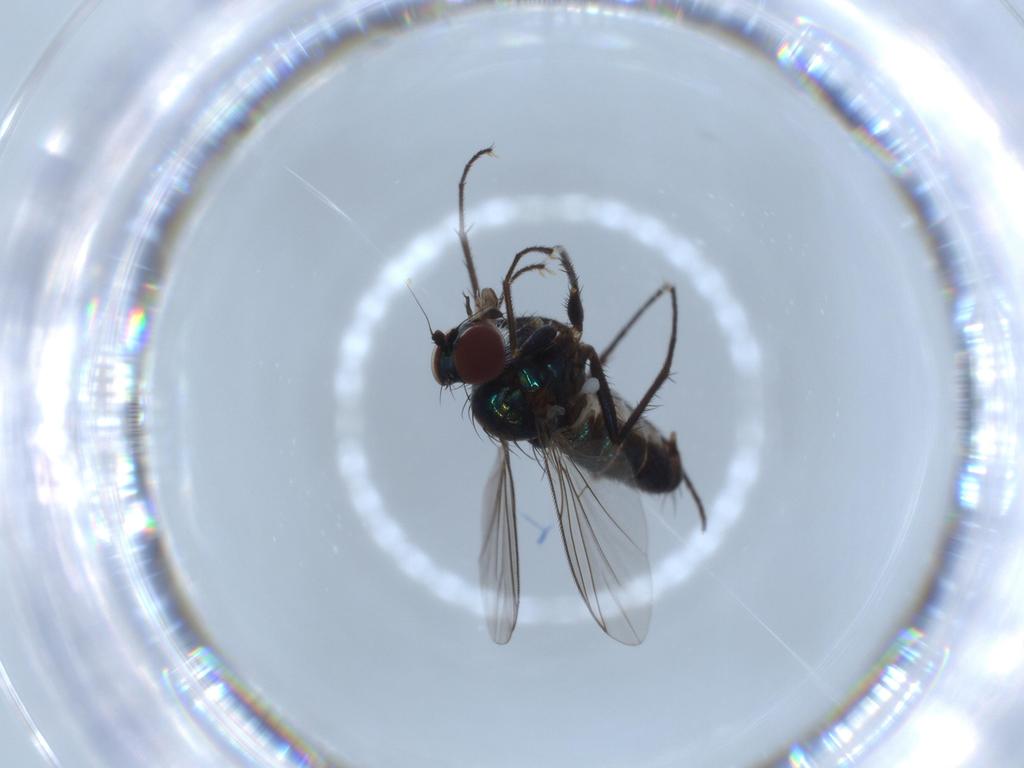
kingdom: Animalia
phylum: Arthropoda
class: Insecta
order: Diptera
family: Dolichopodidae
